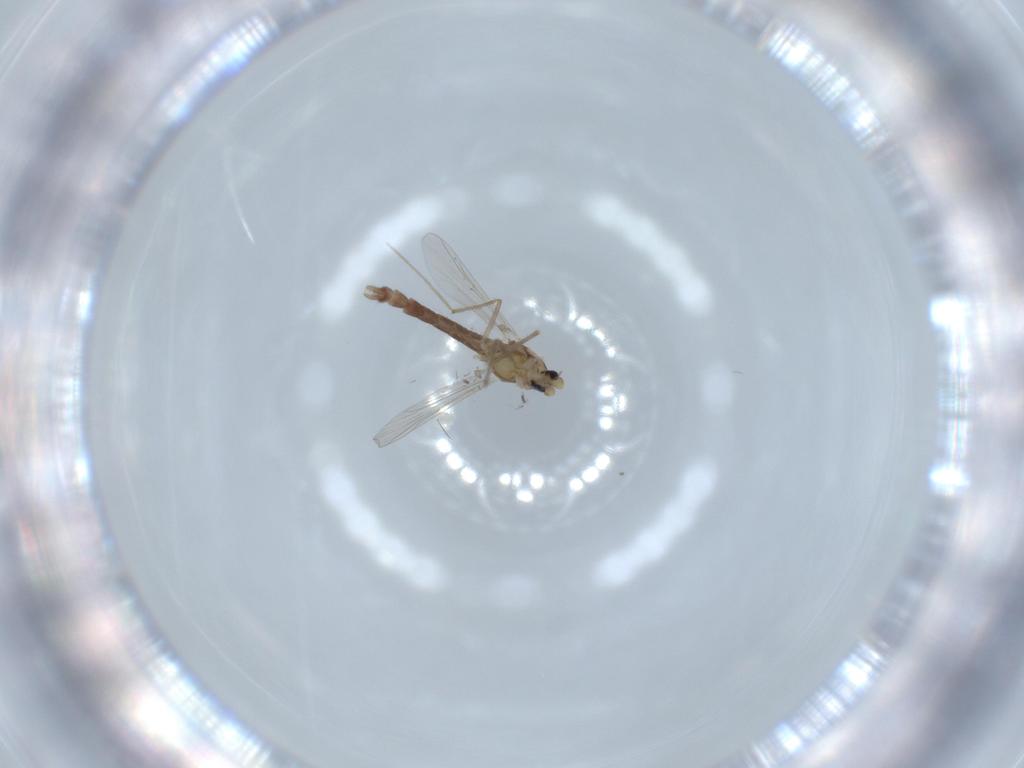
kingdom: Animalia
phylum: Arthropoda
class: Insecta
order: Diptera
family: Chironomidae
